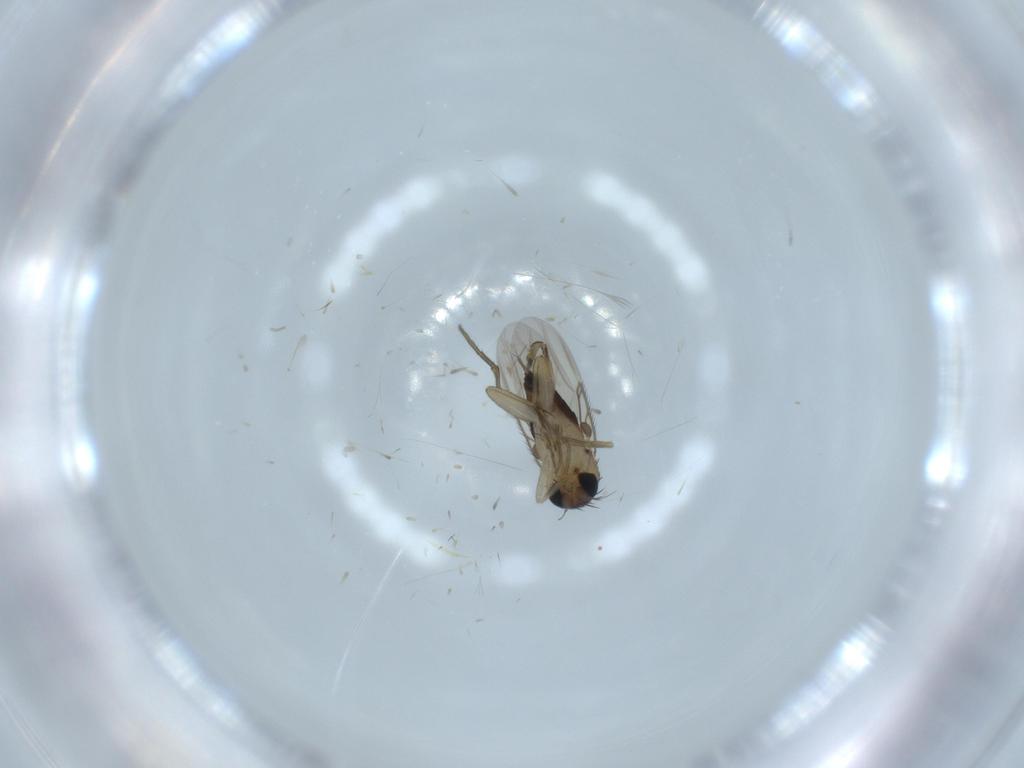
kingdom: Animalia
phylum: Arthropoda
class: Insecta
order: Diptera
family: Phoridae
